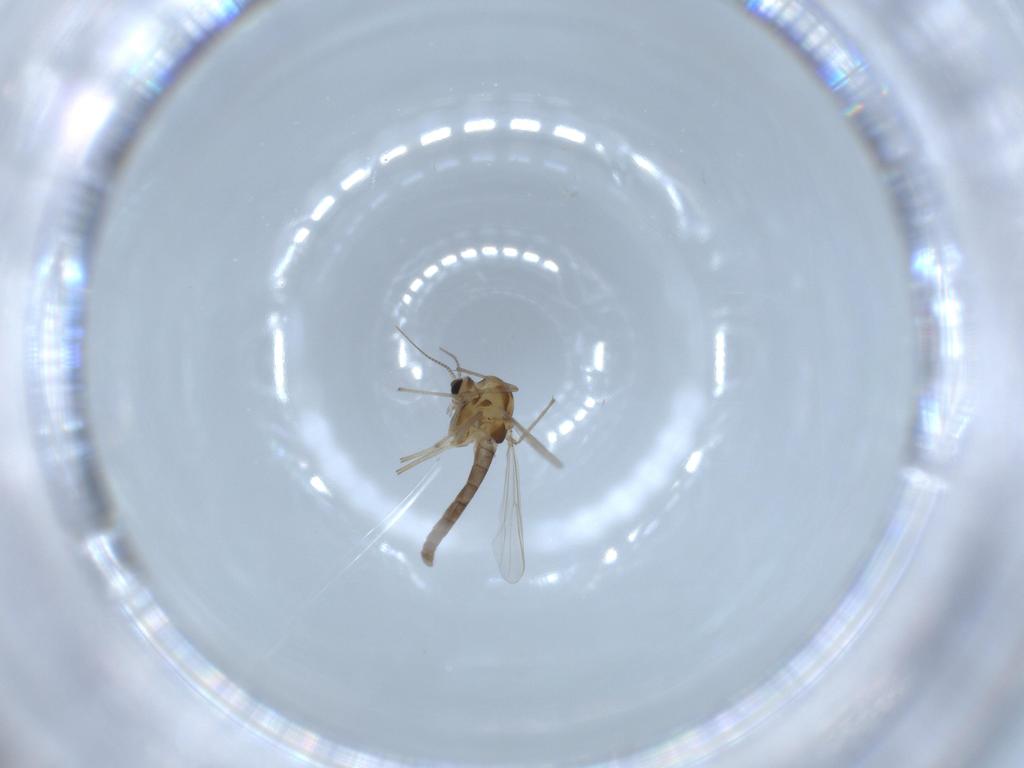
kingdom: Animalia
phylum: Arthropoda
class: Insecta
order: Diptera
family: Chironomidae
